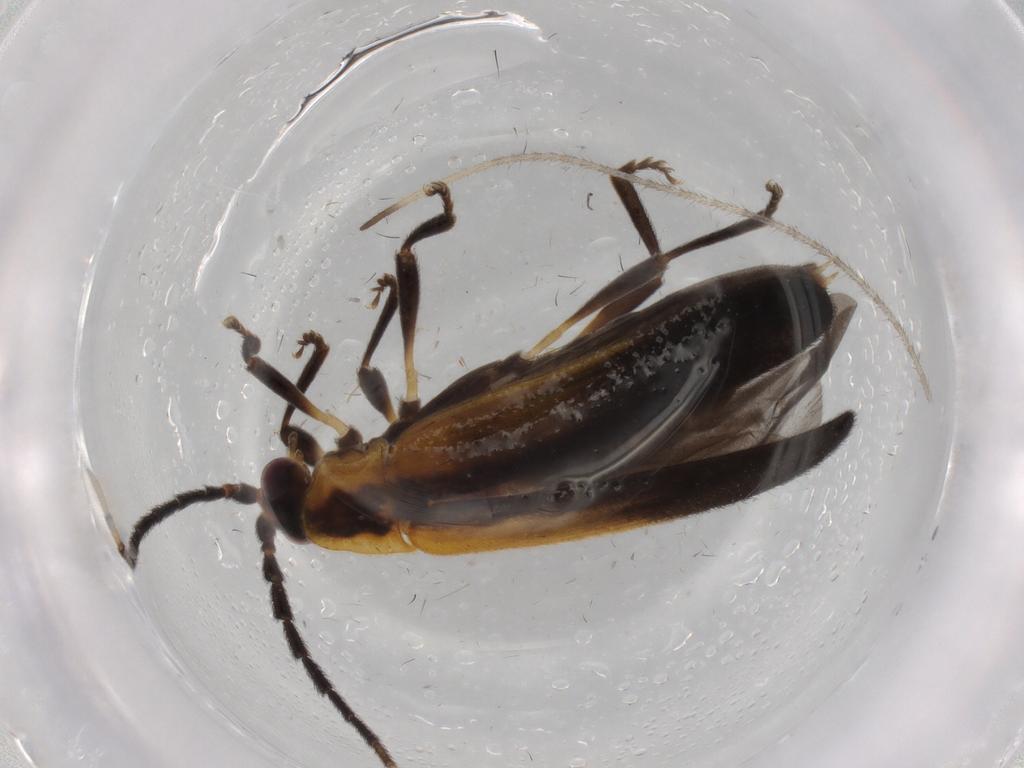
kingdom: Animalia
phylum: Arthropoda
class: Insecta
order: Coleoptera
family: Lycidae
